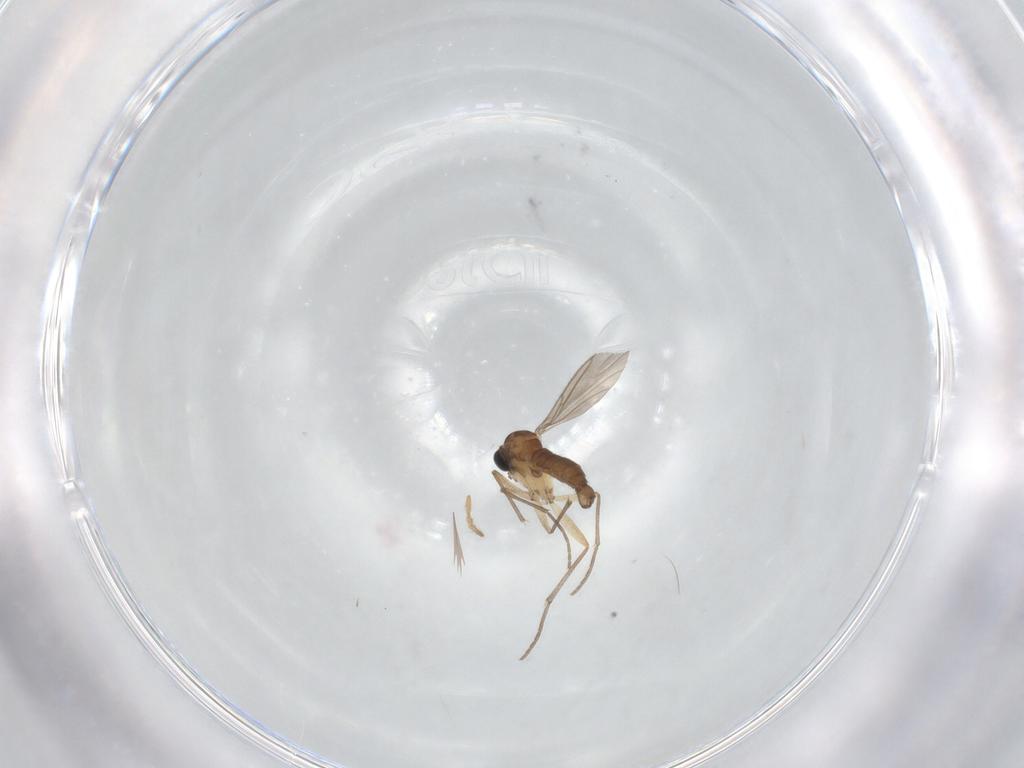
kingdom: Animalia
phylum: Arthropoda
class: Insecta
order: Diptera
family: Sciaridae
